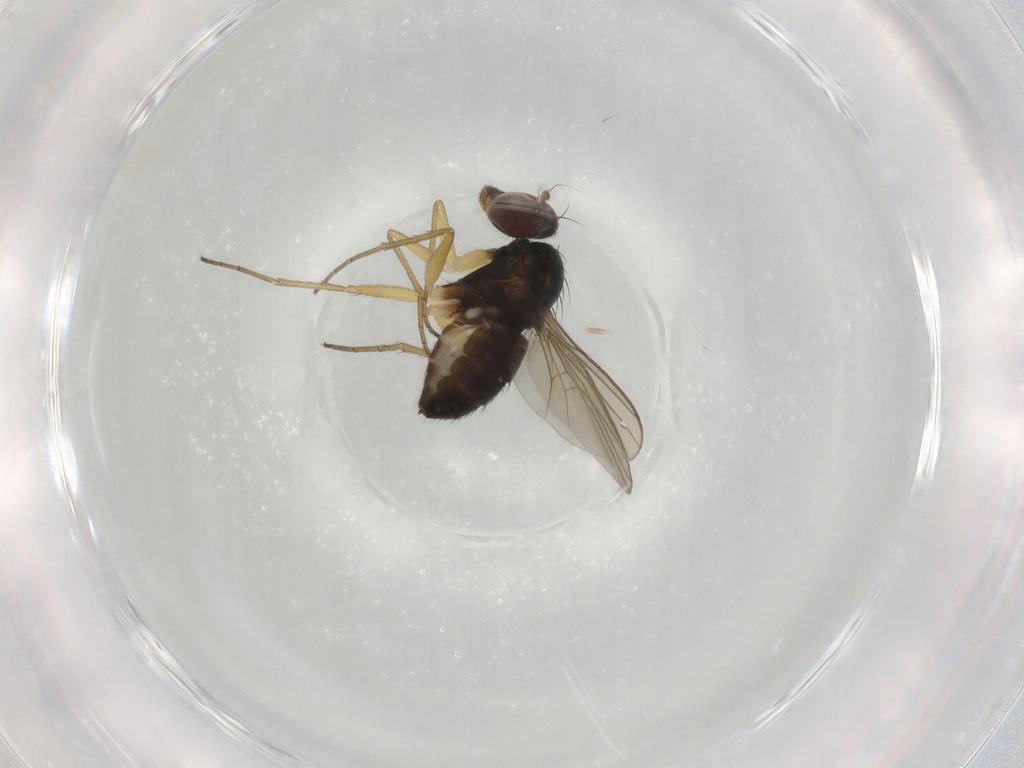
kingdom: Animalia
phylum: Arthropoda
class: Insecta
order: Diptera
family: Dolichopodidae
